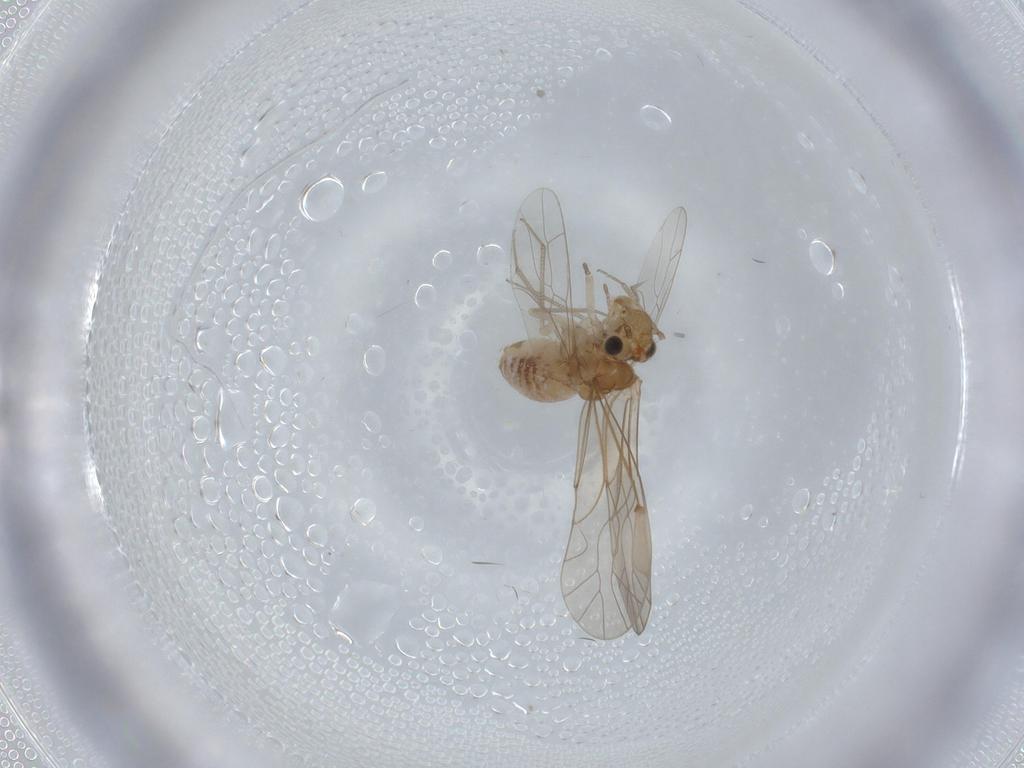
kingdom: Animalia
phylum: Arthropoda
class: Insecta
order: Psocodea
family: Lachesillidae
